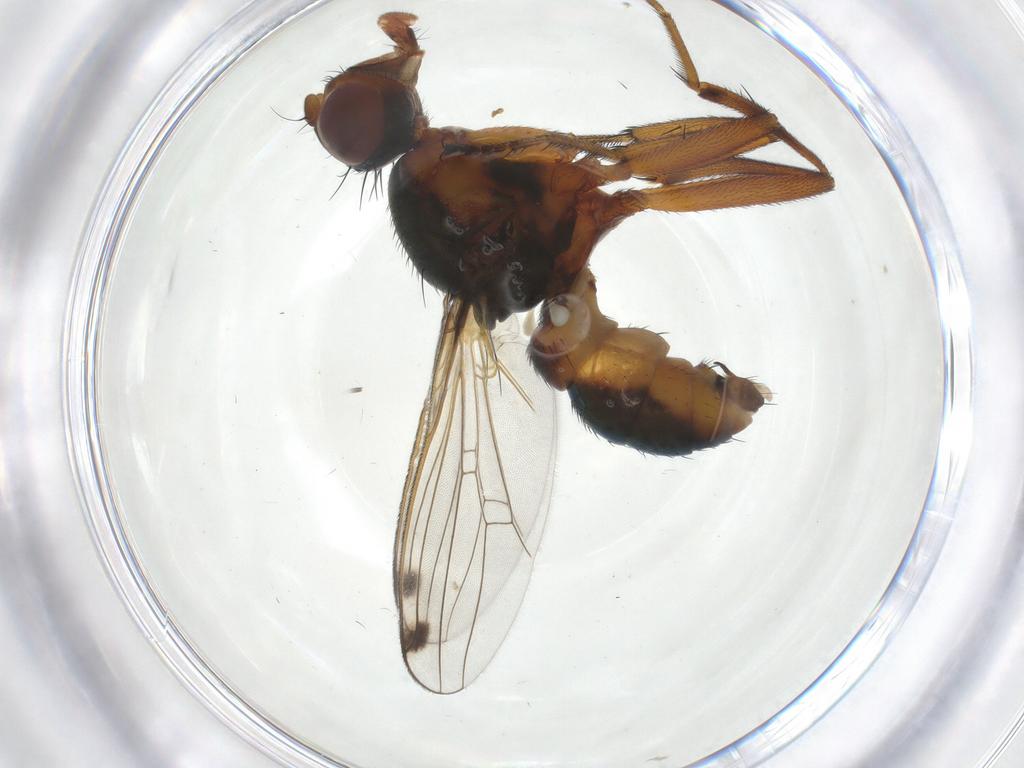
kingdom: Animalia
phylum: Arthropoda
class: Insecta
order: Diptera
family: Sepsidae
